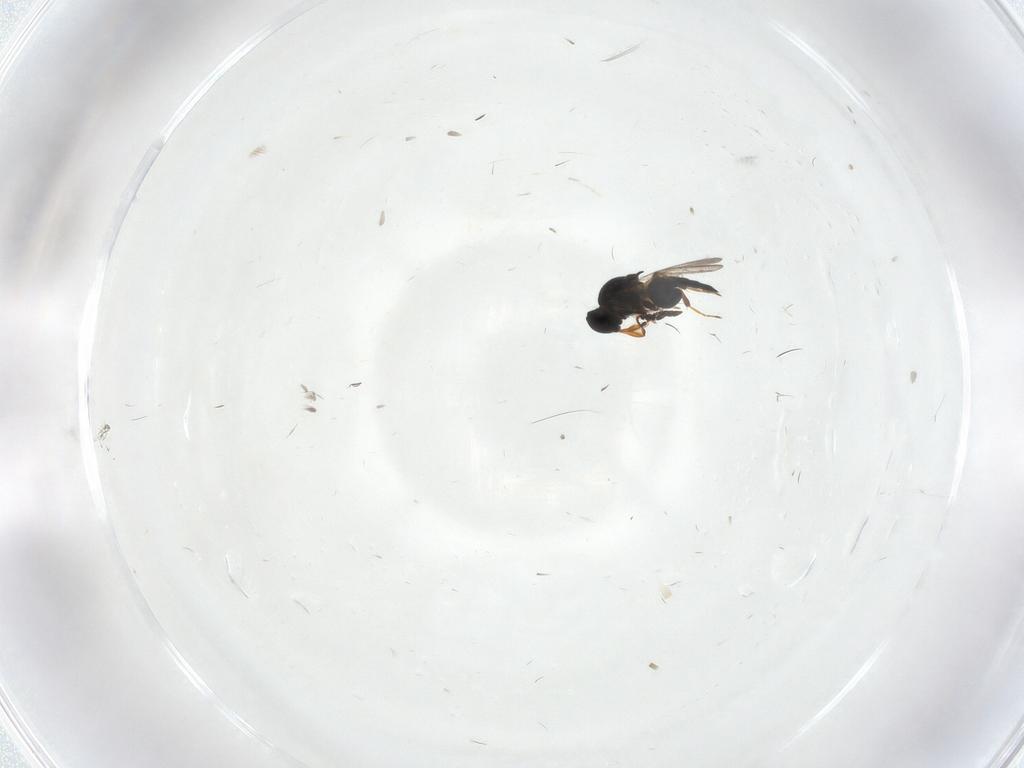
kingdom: Animalia
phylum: Arthropoda
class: Insecta
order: Hymenoptera
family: Platygastridae
